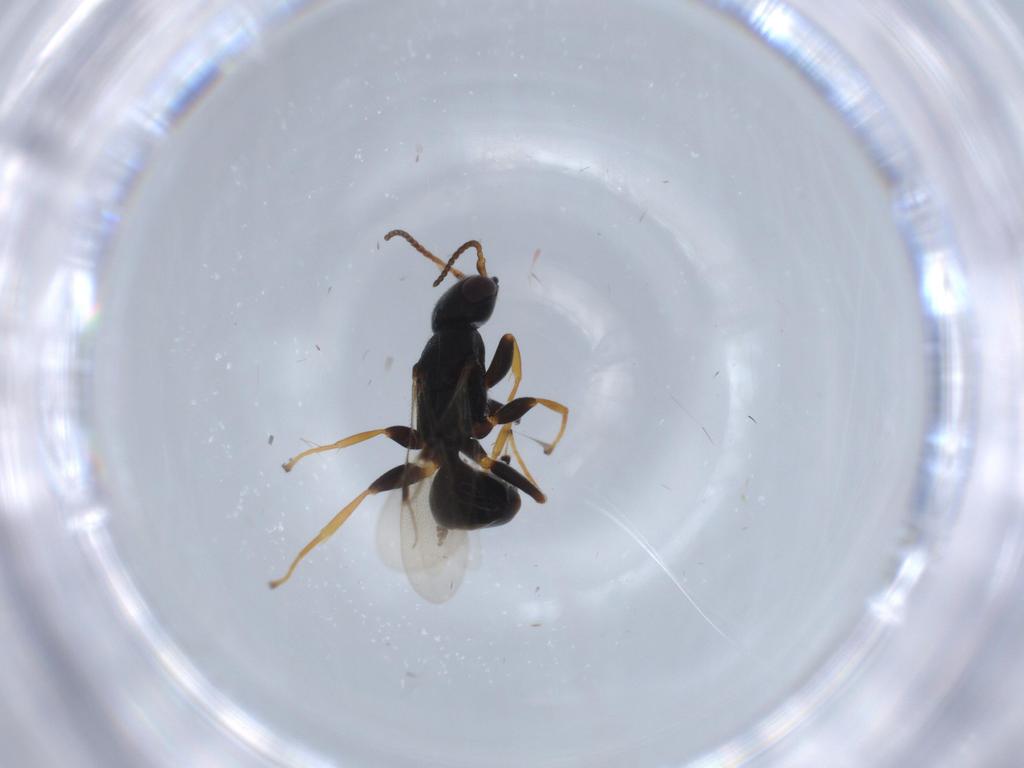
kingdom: Animalia
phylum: Arthropoda
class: Insecta
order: Hymenoptera
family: Bethylidae
